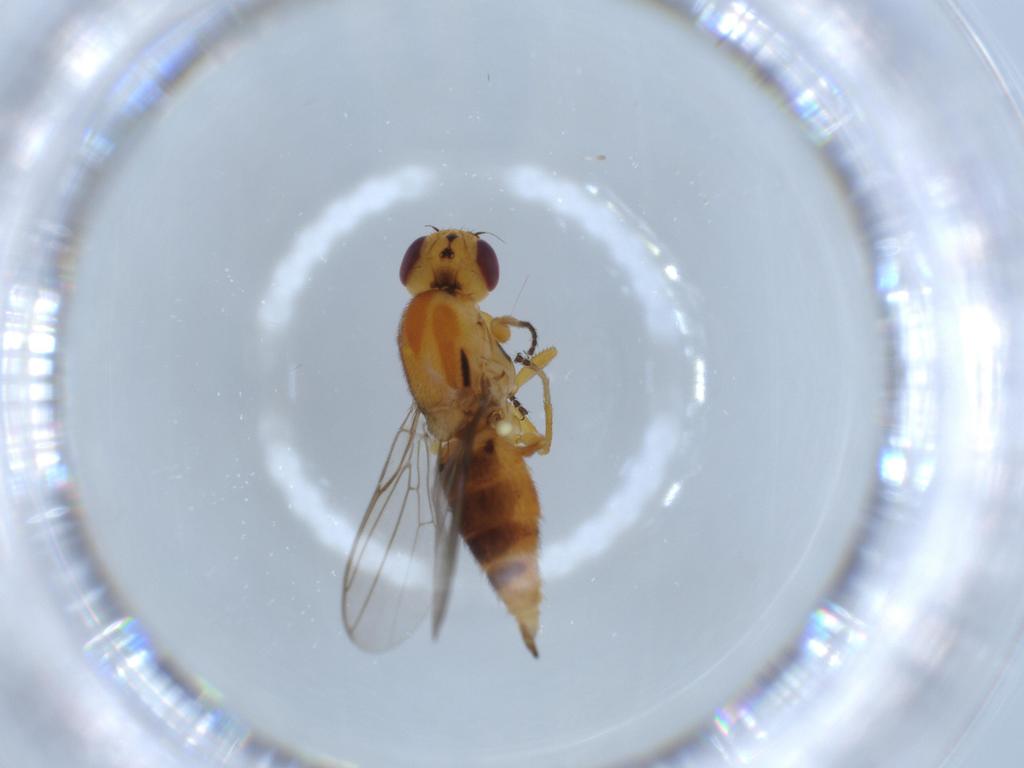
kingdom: Animalia
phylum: Arthropoda
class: Insecta
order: Diptera
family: Chloropidae
